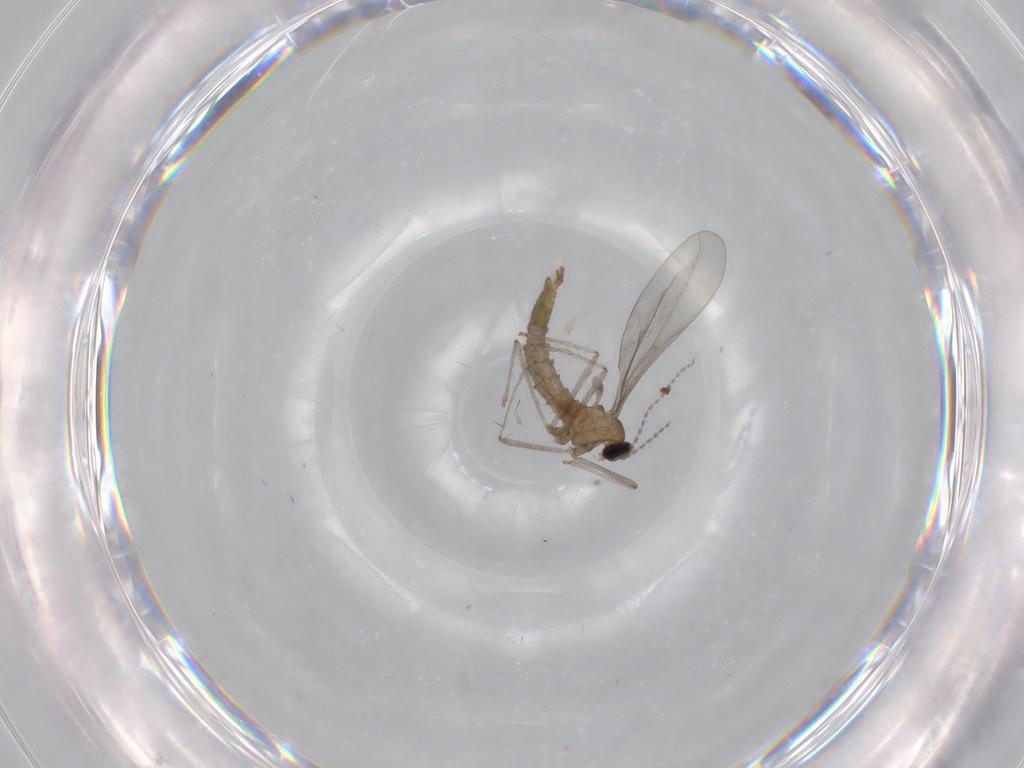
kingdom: Animalia
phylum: Arthropoda
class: Insecta
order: Diptera
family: Cecidomyiidae
